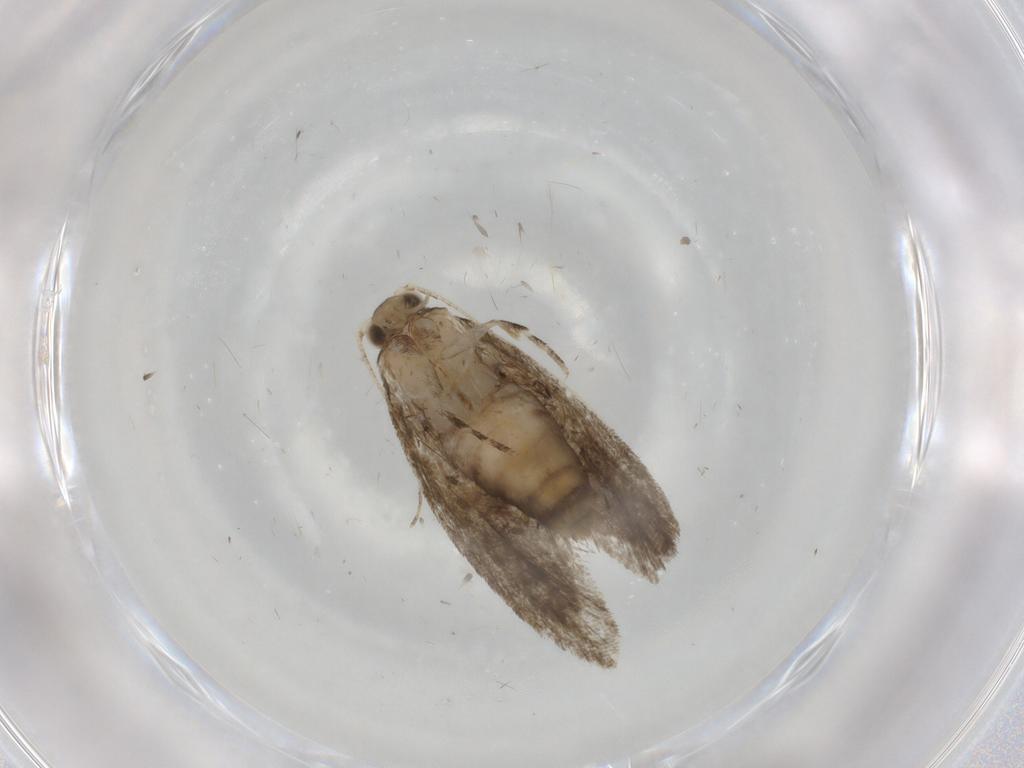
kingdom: Animalia
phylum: Arthropoda
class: Insecta
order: Lepidoptera
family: Tineidae
